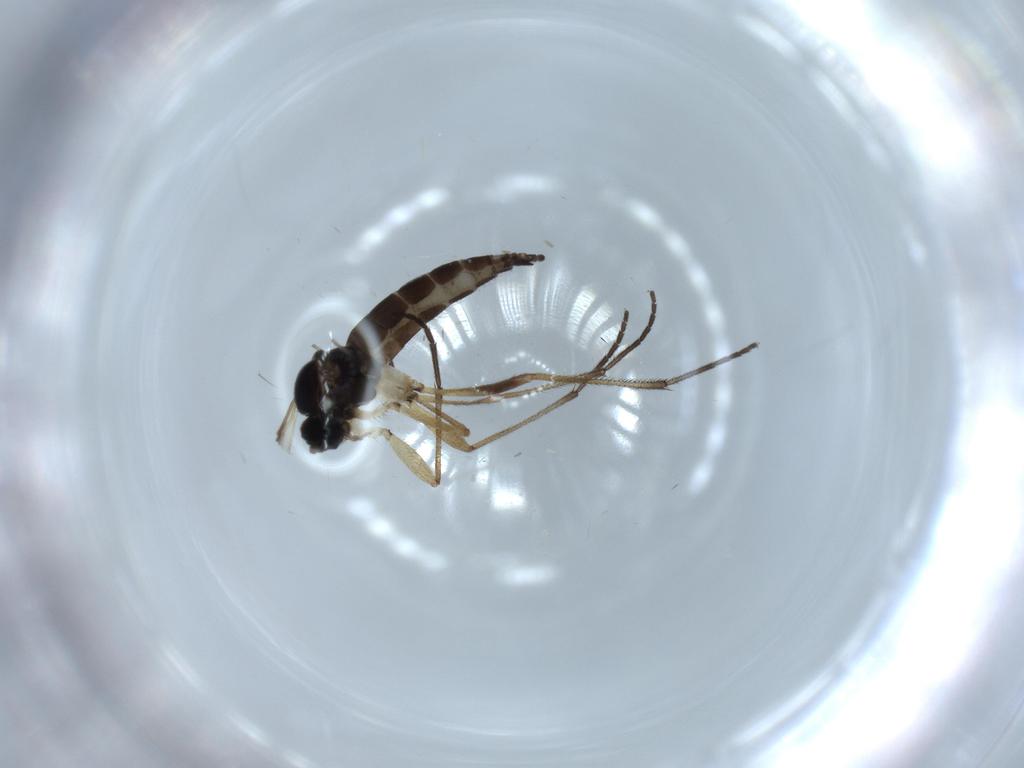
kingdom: Animalia
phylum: Arthropoda
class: Insecta
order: Diptera
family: Sciaridae
